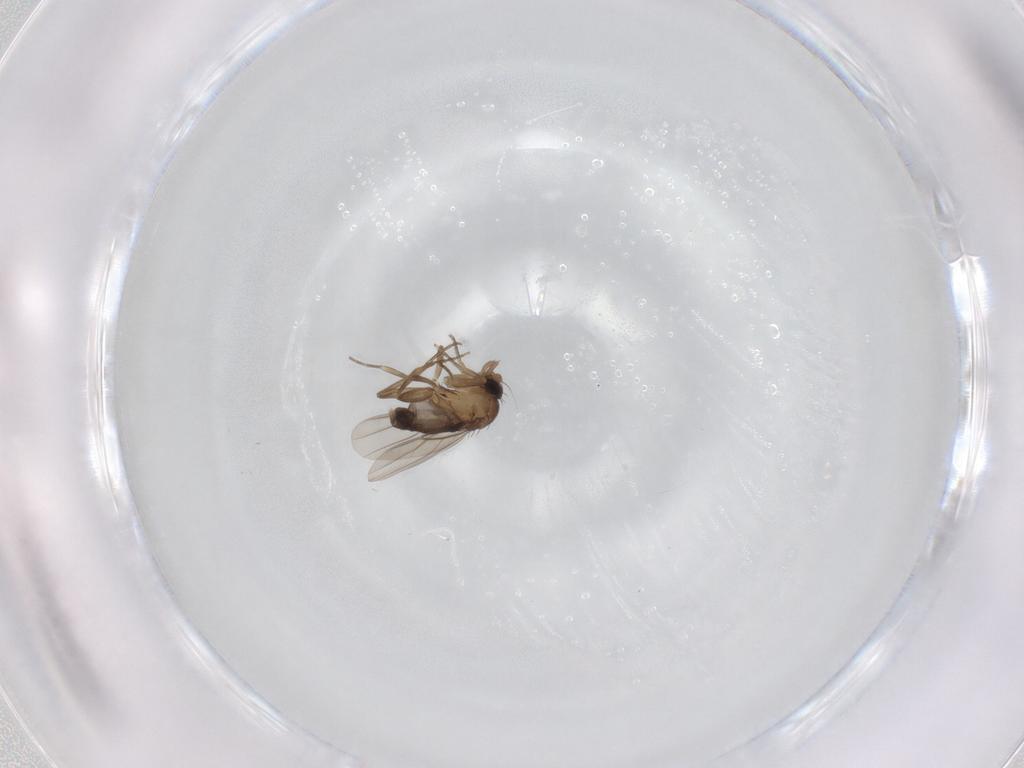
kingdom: Animalia
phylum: Arthropoda
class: Insecta
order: Diptera
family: Phoridae
